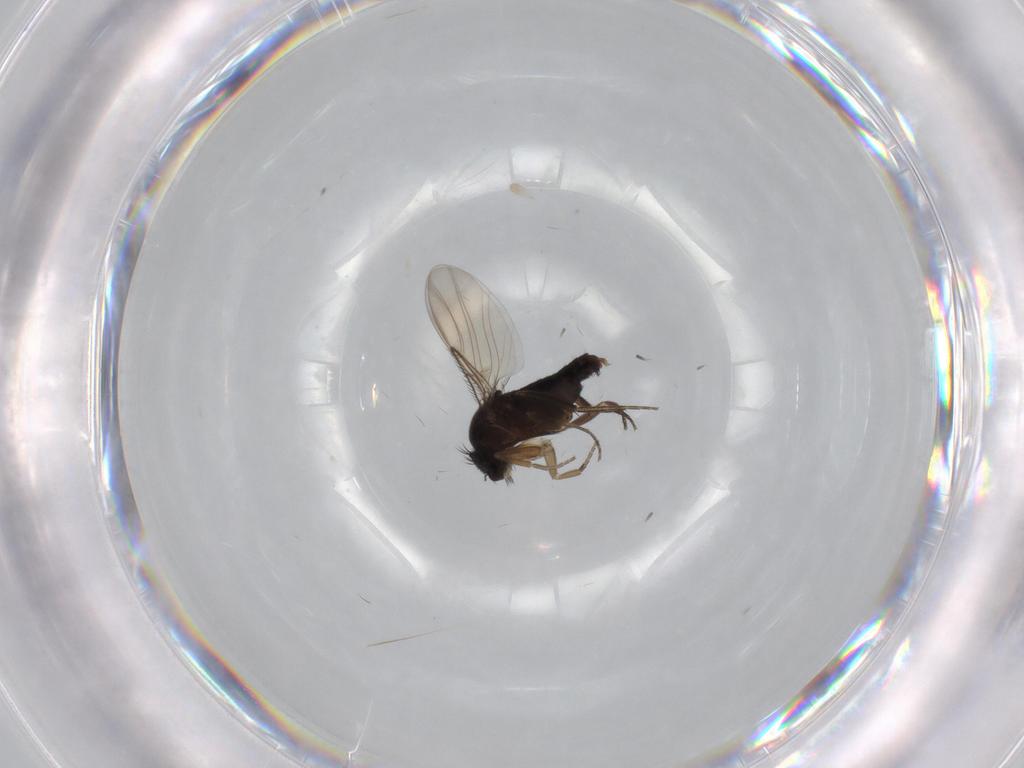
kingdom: Animalia
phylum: Arthropoda
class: Insecta
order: Diptera
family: Phoridae
